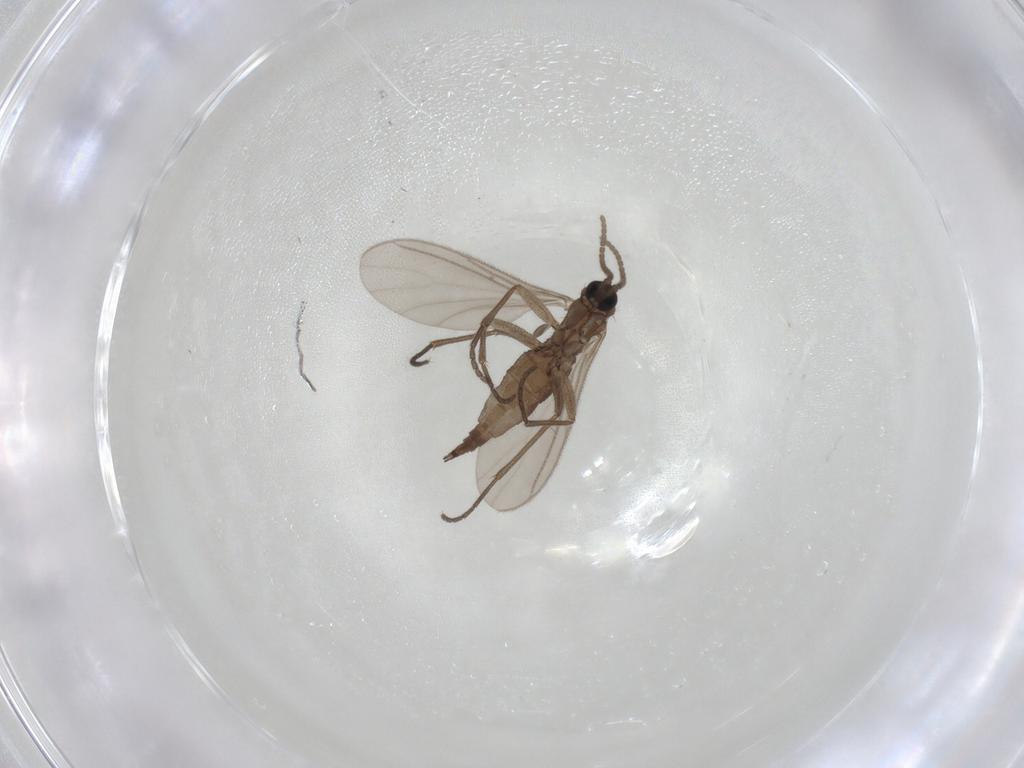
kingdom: Animalia
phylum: Arthropoda
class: Insecta
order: Diptera
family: Sciaridae
